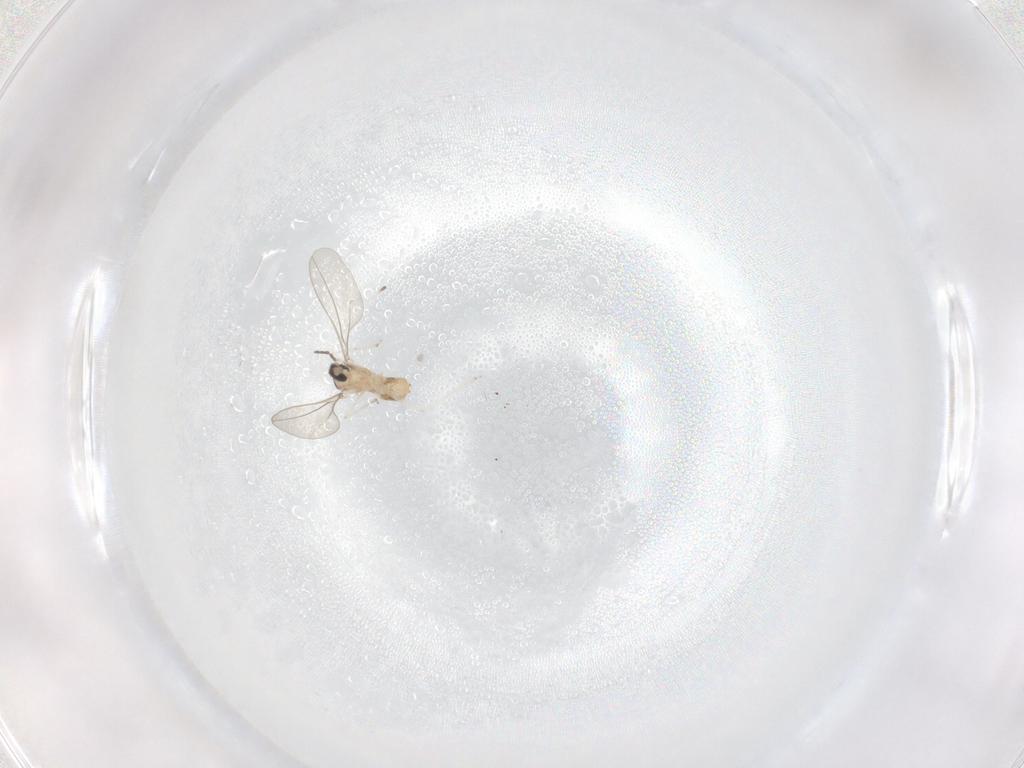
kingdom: Animalia
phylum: Arthropoda
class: Insecta
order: Diptera
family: Cecidomyiidae
